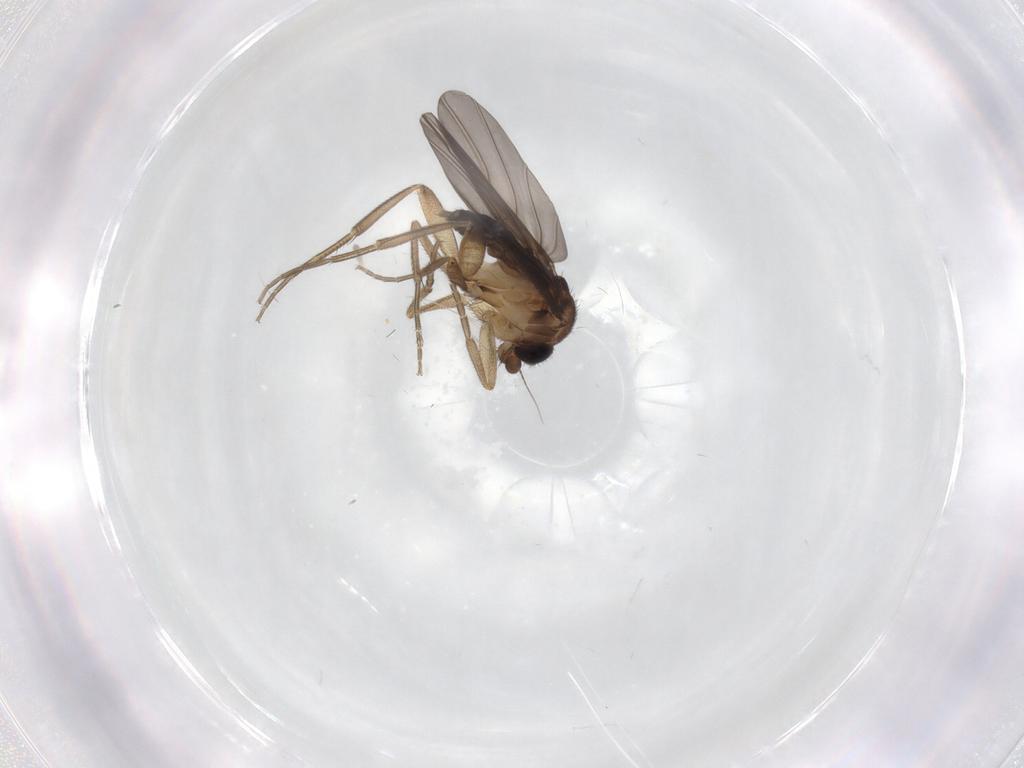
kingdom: Animalia
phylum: Arthropoda
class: Insecta
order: Diptera
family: Phoridae
